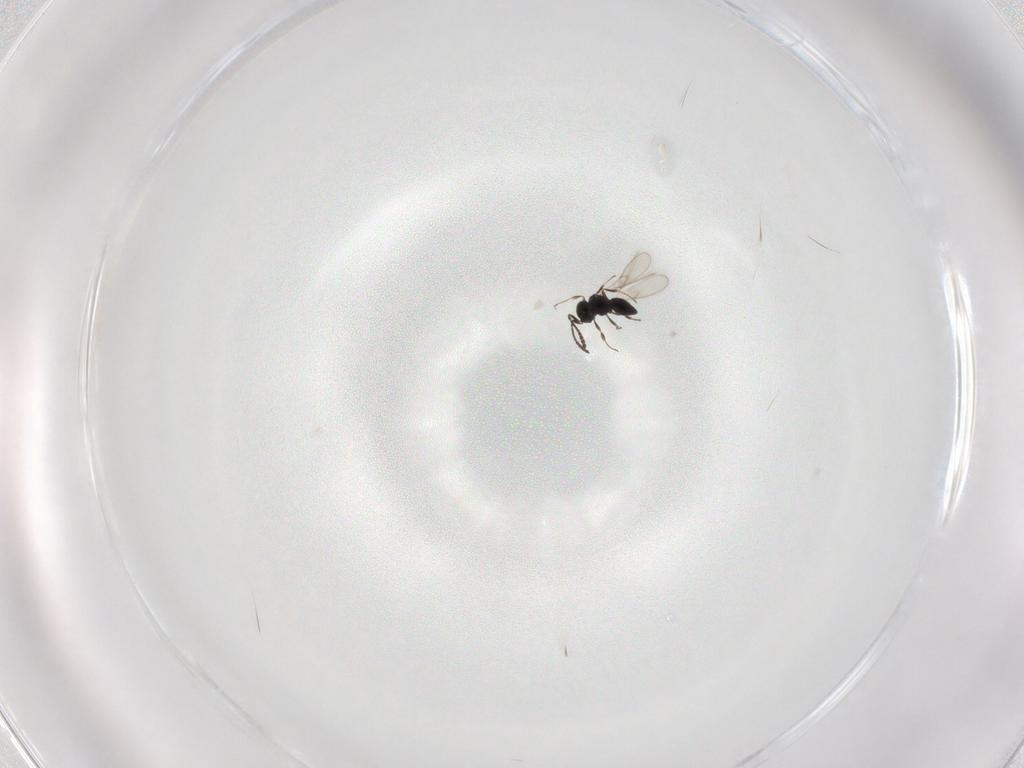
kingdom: Animalia
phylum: Arthropoda
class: Insecta
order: Hymenoptera
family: Scelionidae
